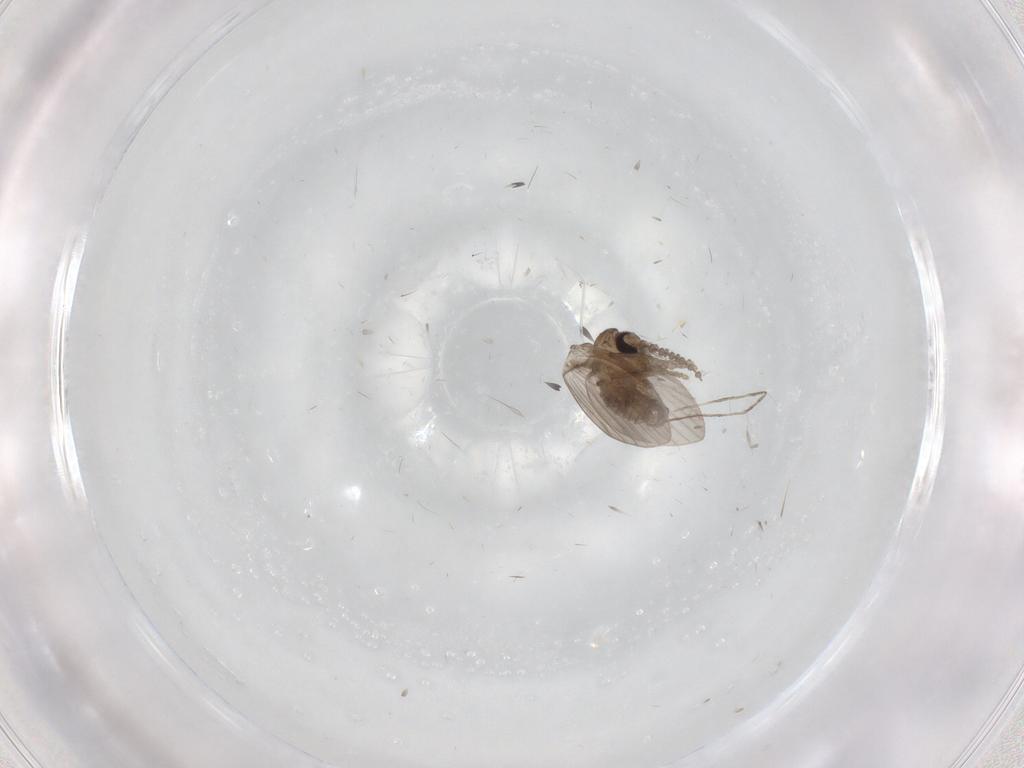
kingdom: Animalia
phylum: Arthropoda
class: Insecta
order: Diptera
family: Psychodidae
